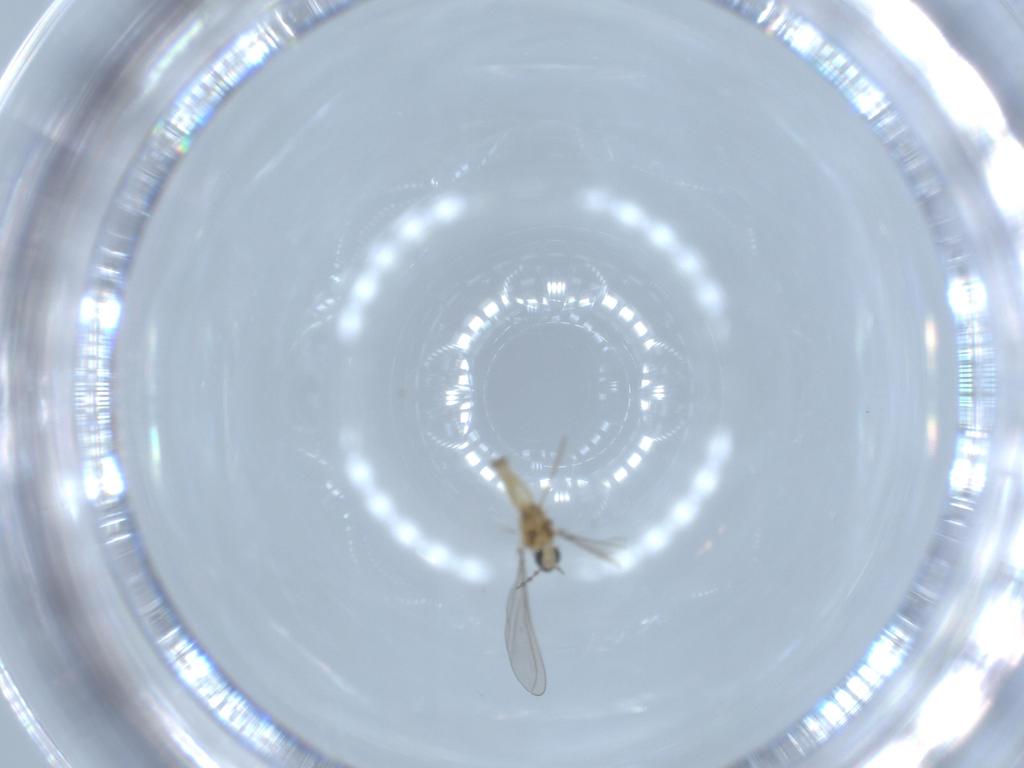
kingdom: Animalia
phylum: Arthropoda
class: Insecta
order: Diptera
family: Cecidomyiidae
